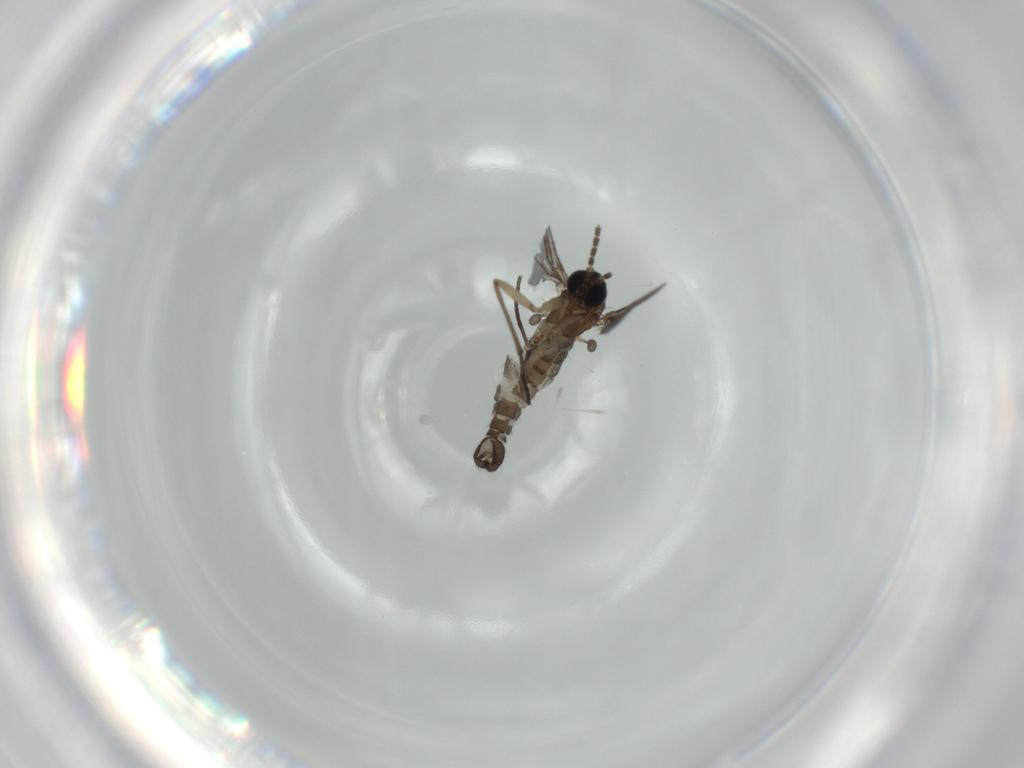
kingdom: Animalia
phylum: Arthropoda
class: Insecta
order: Diptera
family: Sciaridae
